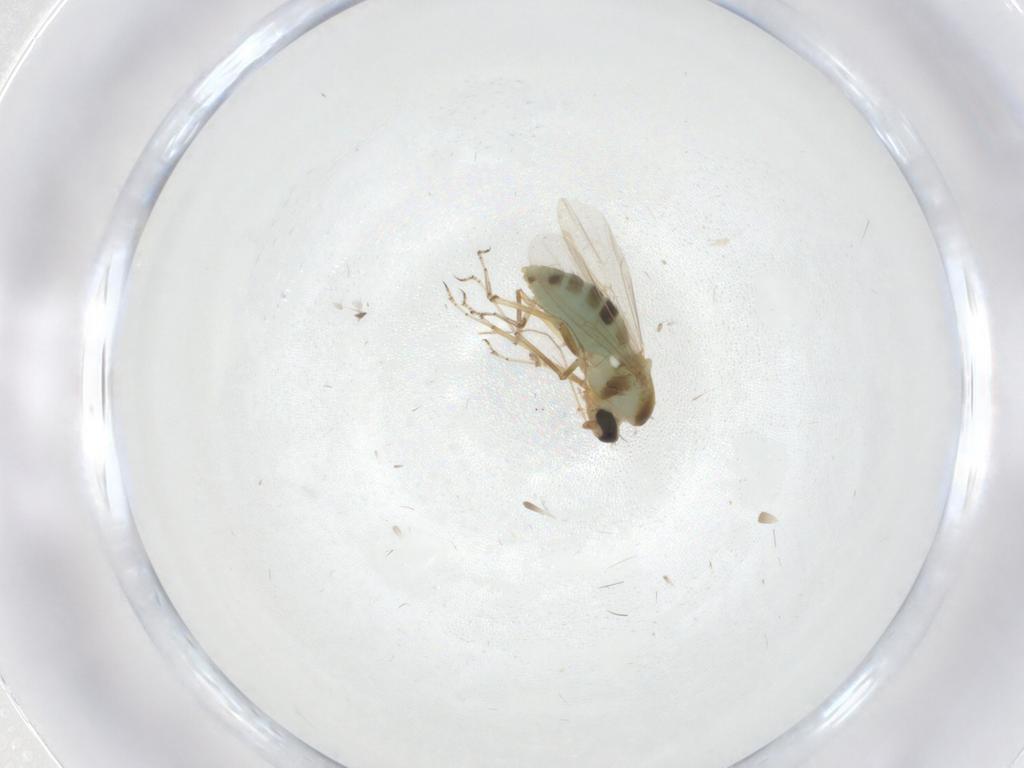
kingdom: Animalia
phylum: Arthropoda
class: Insecta
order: Diptera
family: Ceratopogonidae
